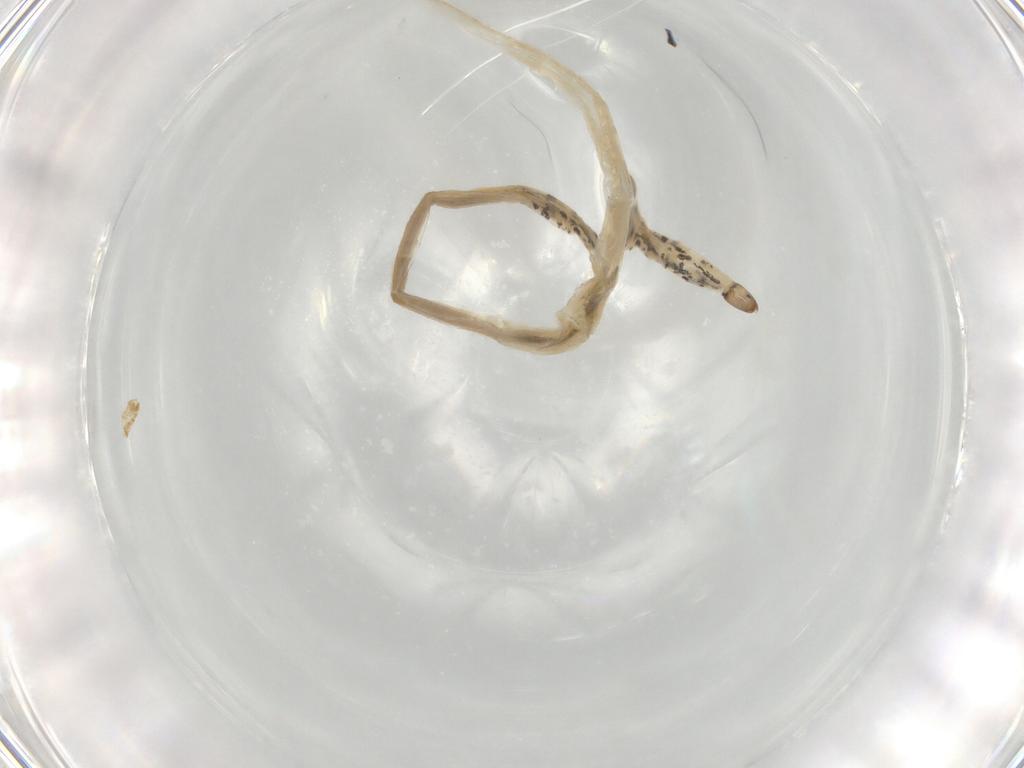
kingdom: Animalia
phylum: Arthropoda
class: Insecta
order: Diptera
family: Ceratopogonidae
